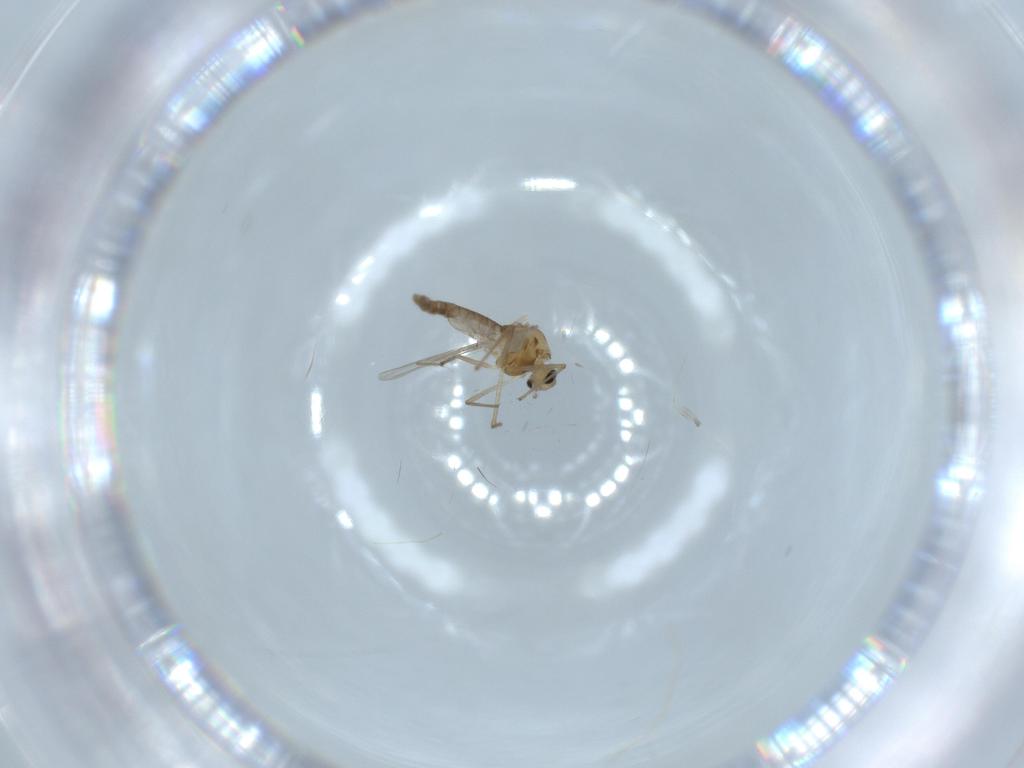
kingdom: Animalia
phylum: Arthropoda
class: Insecta
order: Diptera
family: Chironomidae
